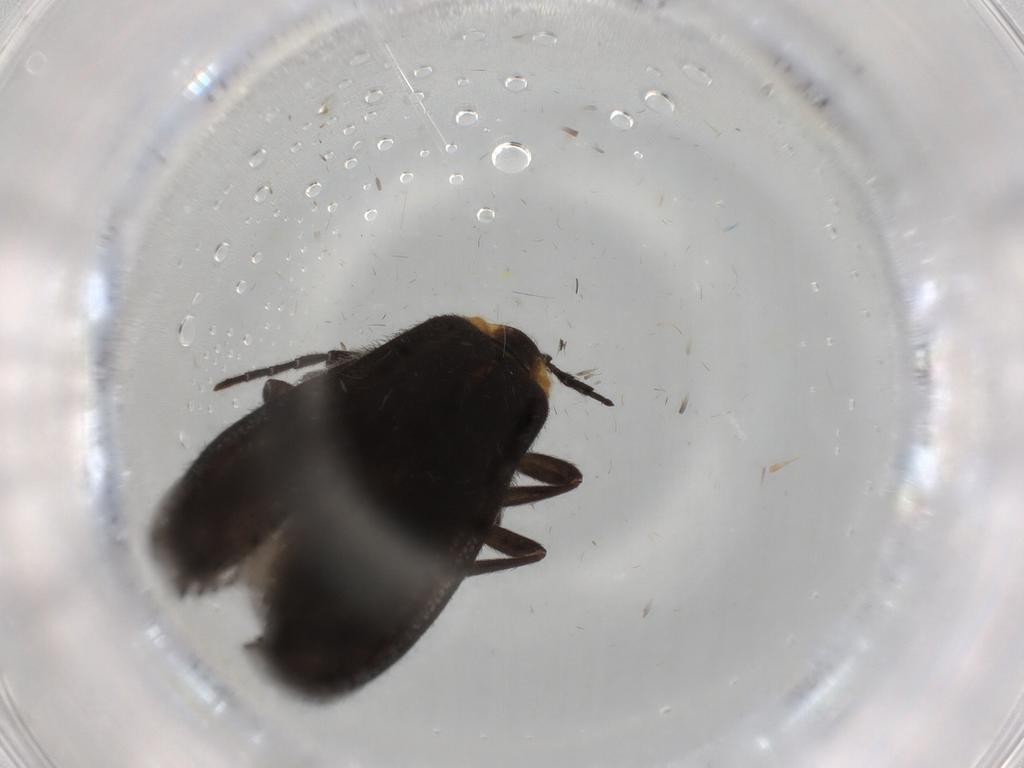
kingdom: Animalia
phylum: Arthropoda
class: Insecta
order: Coleoptera
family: Lycidae
